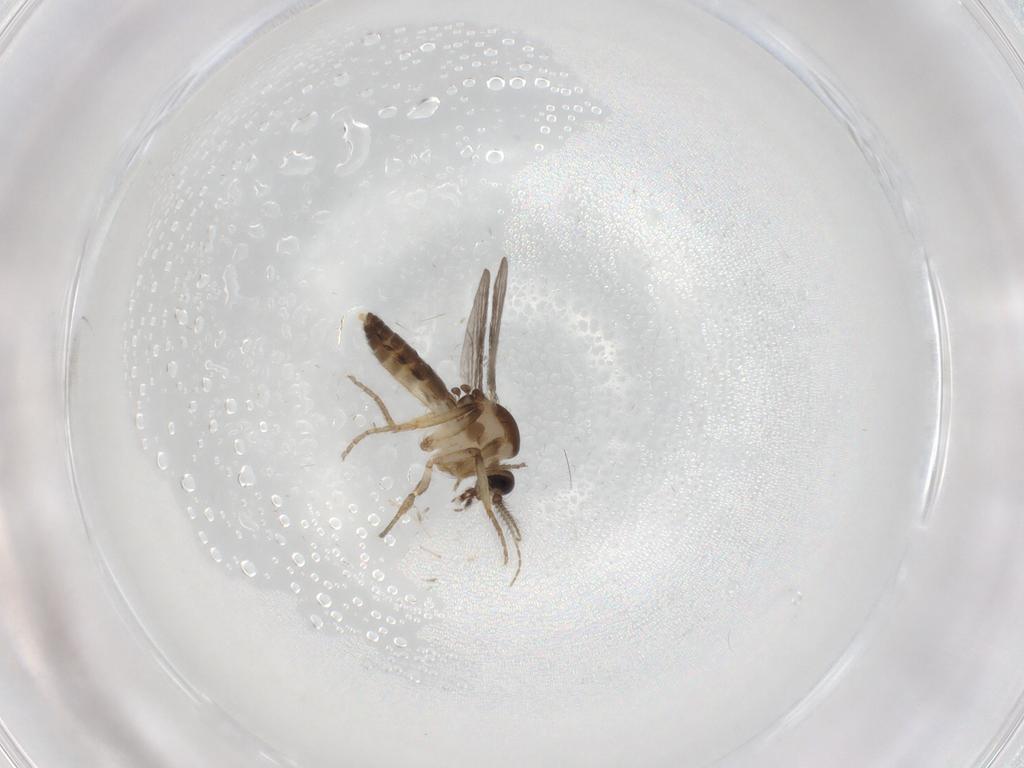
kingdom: Animalia
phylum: Arthropoda
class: Insecta
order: Diptera
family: Ceratopogonidae
